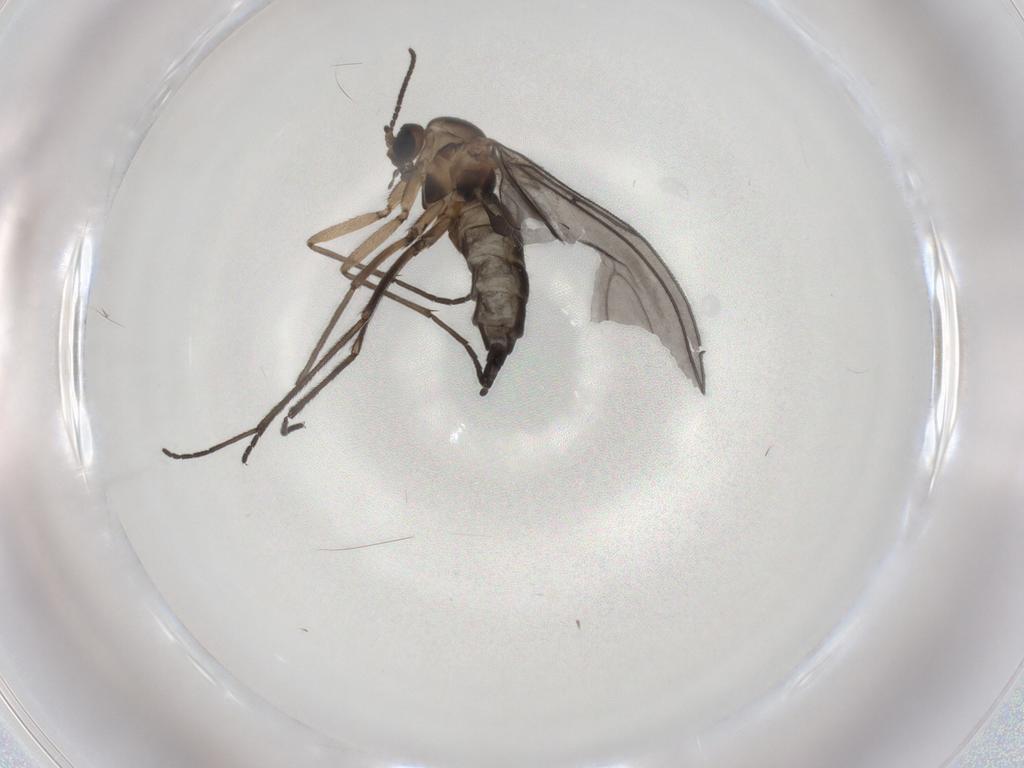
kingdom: Animalia
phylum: Arthropoda
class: Insecta
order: Diptera
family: Sciaridae
